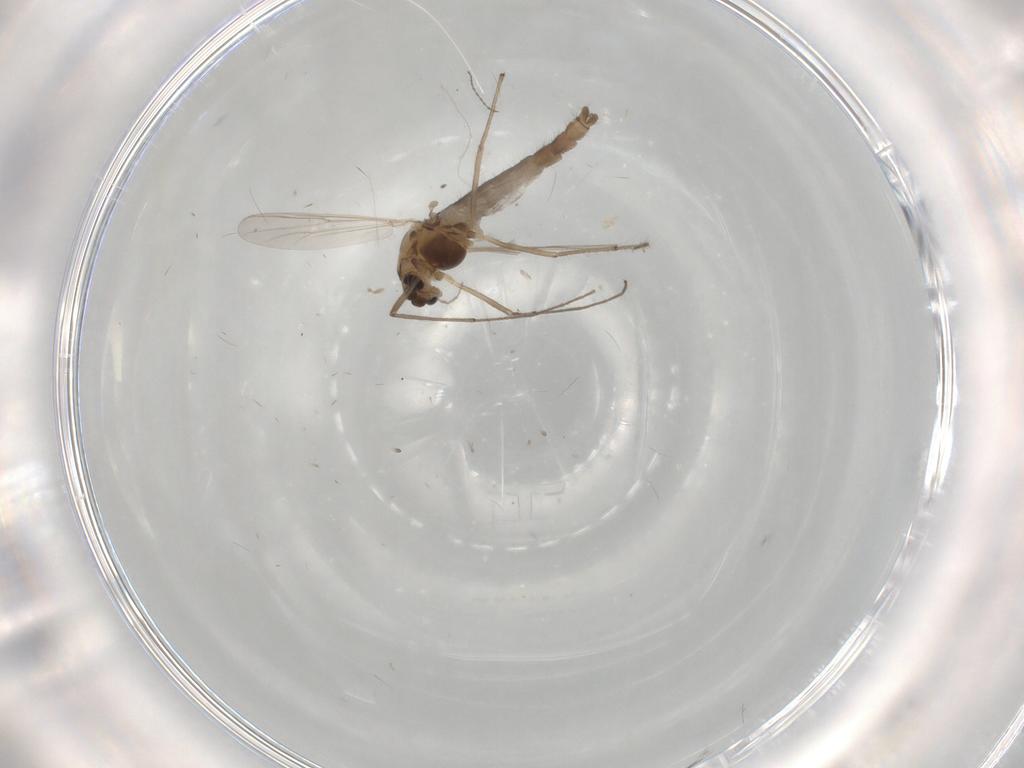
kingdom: Animalia
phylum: Arthropoda
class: Insecta
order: Diptera
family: Chironomidae
